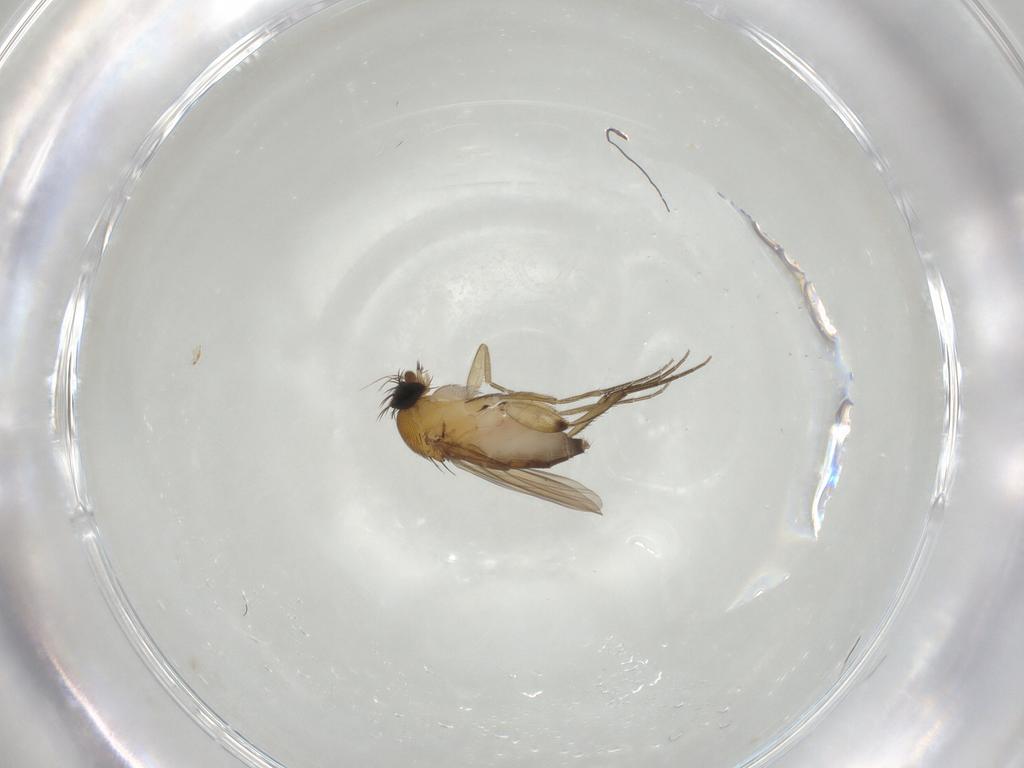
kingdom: Animalia
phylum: Arthropoda
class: Insecta
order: Diptera
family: Phoridae
